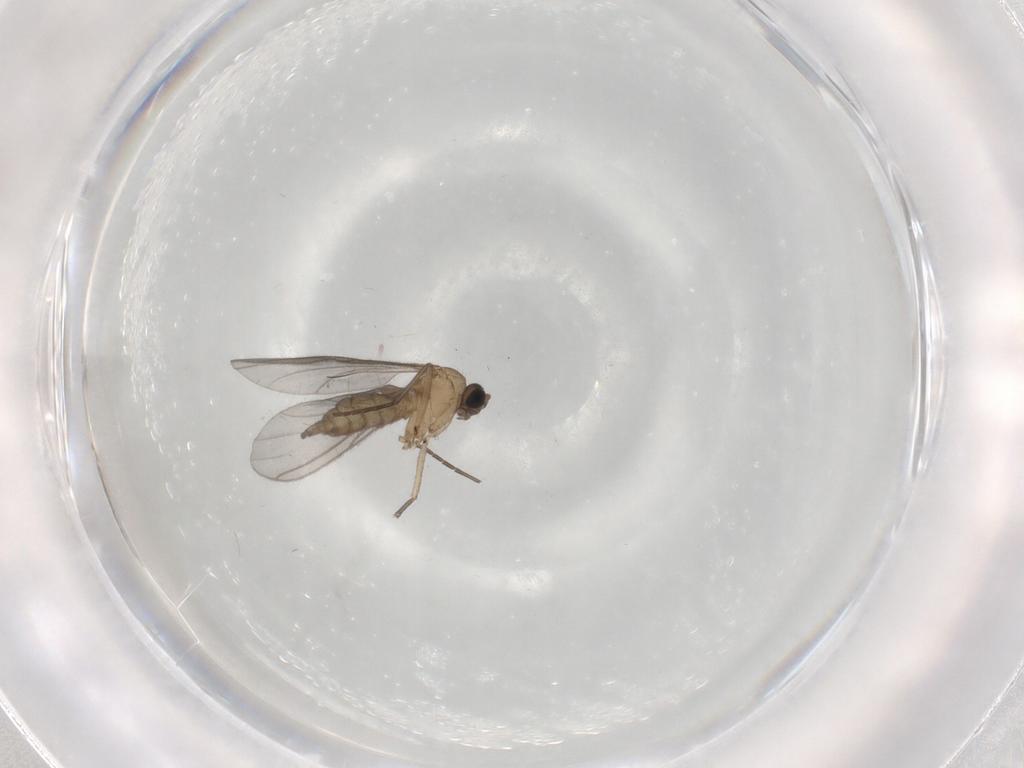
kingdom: Animalia
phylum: Arthropoda
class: Insecta
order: Diptera
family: Sciaridae
